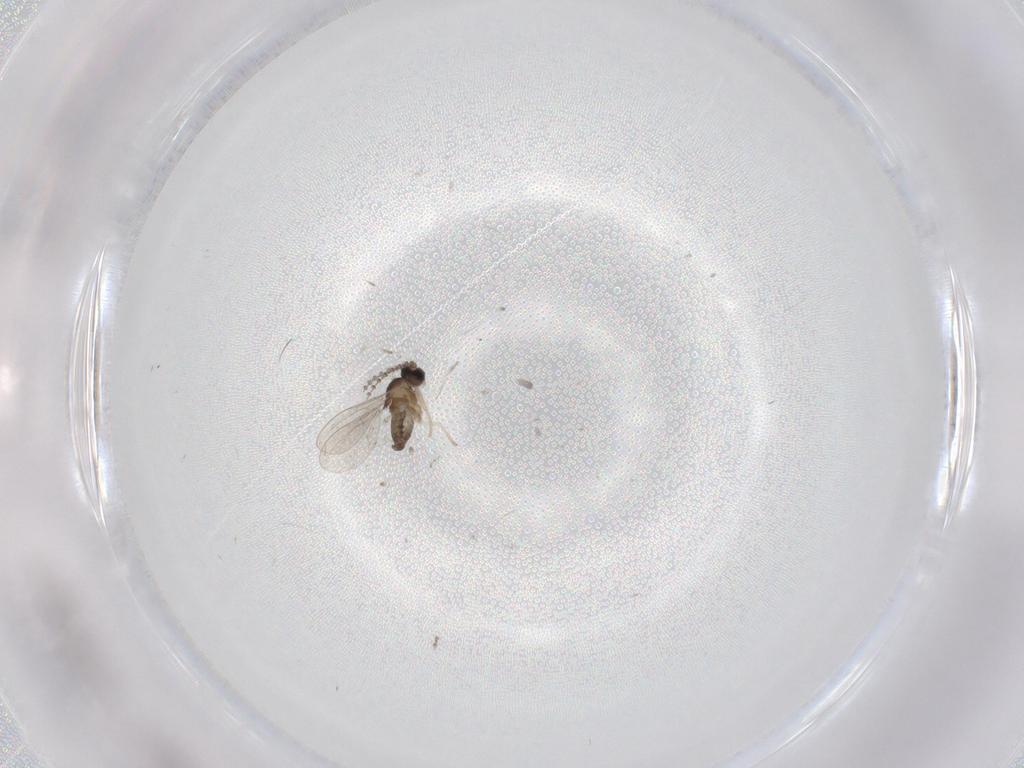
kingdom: Animalia
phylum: Arthropoda
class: Insecta
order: Diptera
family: Cecidomyiidae
